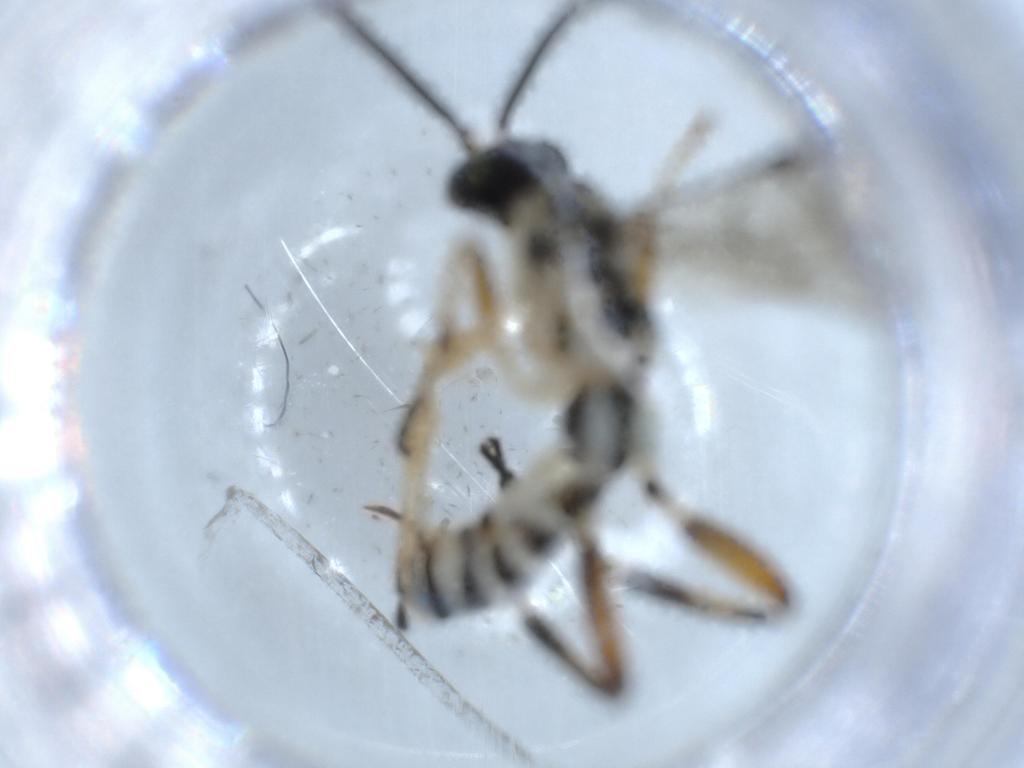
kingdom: Animalia
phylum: Arthropoda
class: Insecta
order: Hymenoptera
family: Bethylidae
